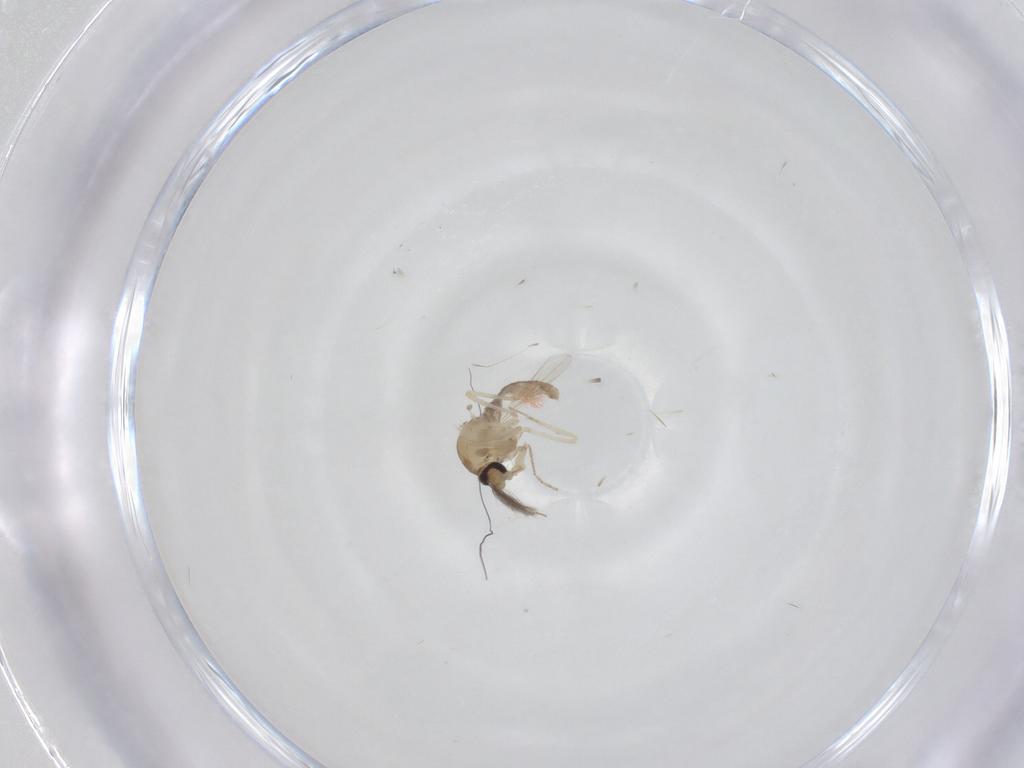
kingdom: Animalia
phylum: Arthropoda
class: Insecta
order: Diptera
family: Ceratopogonidae
